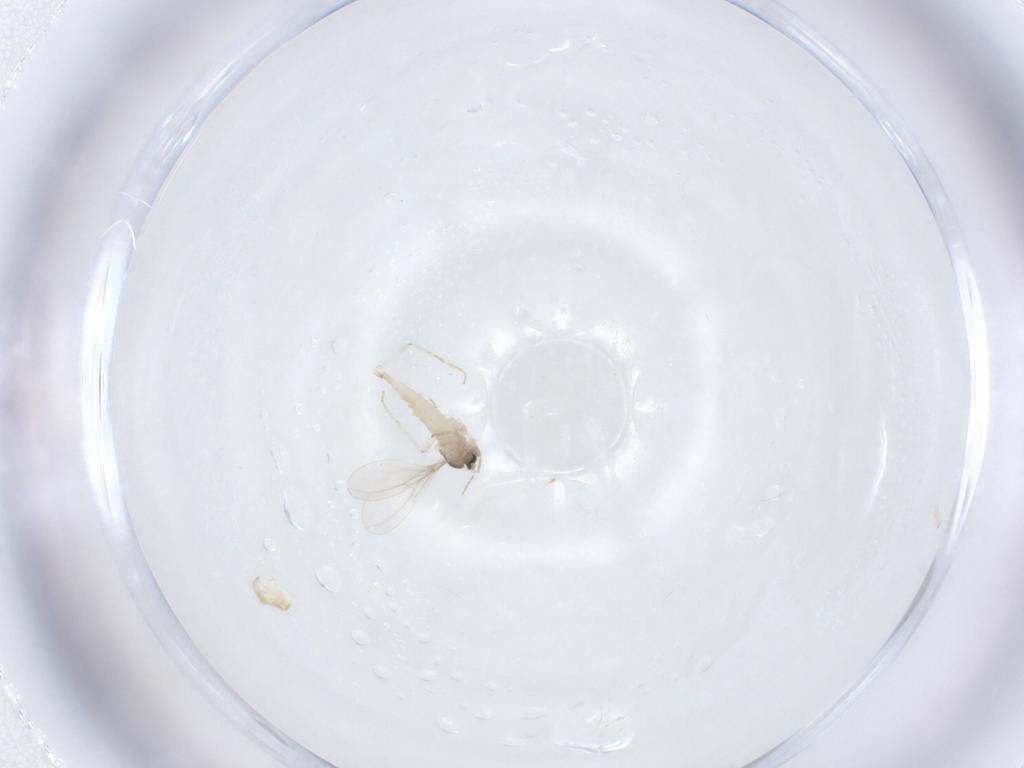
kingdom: Animalia
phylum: Arthropoda
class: Insecta
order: Diptera
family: Cecidomyiidae
